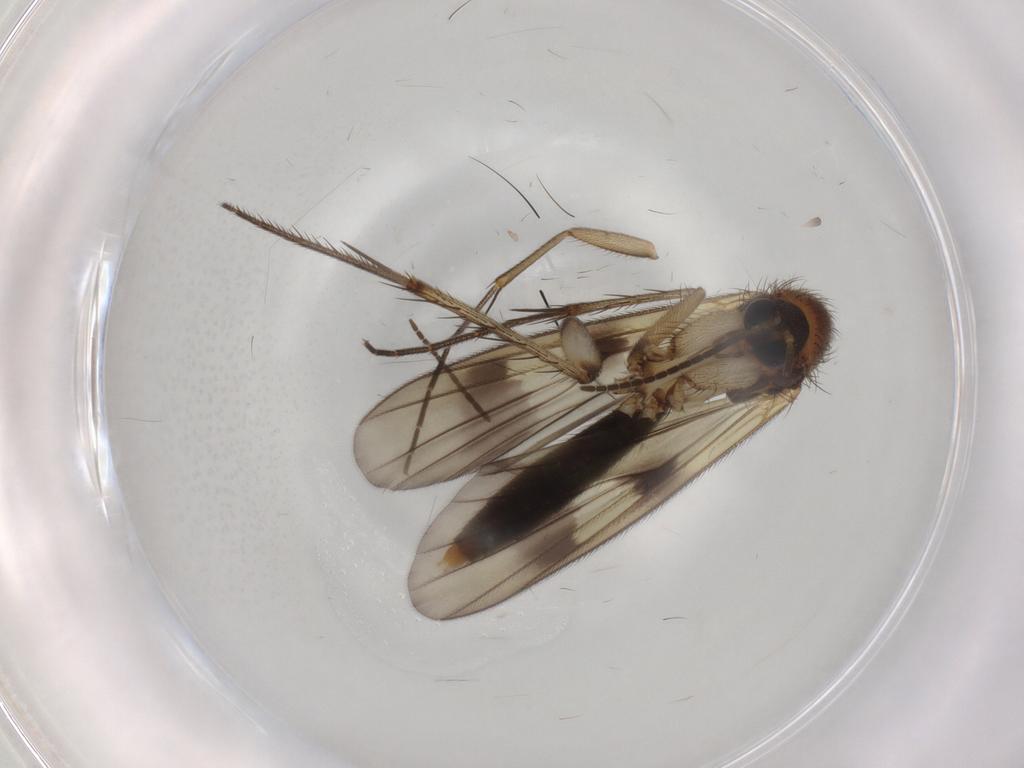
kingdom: Animalia
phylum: Arthropoda
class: Insecta
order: Diptera
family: Mycetophilidae
